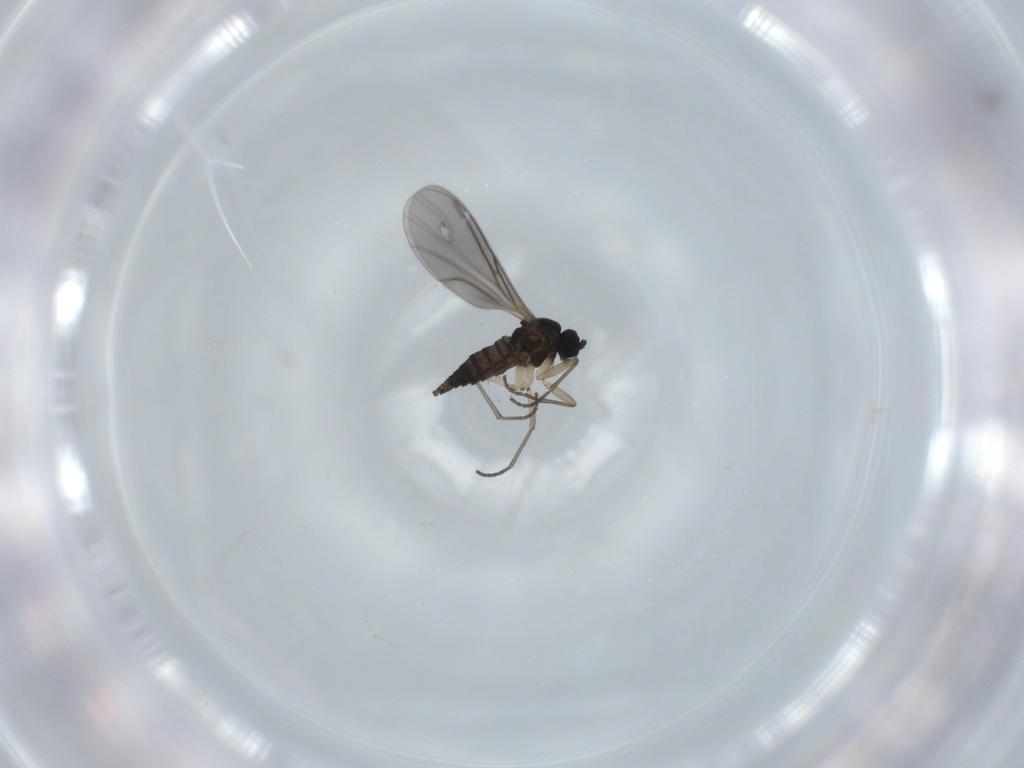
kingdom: Animalia
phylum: Arthropoda
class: Insecta
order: Diptera
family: Sciaridae
